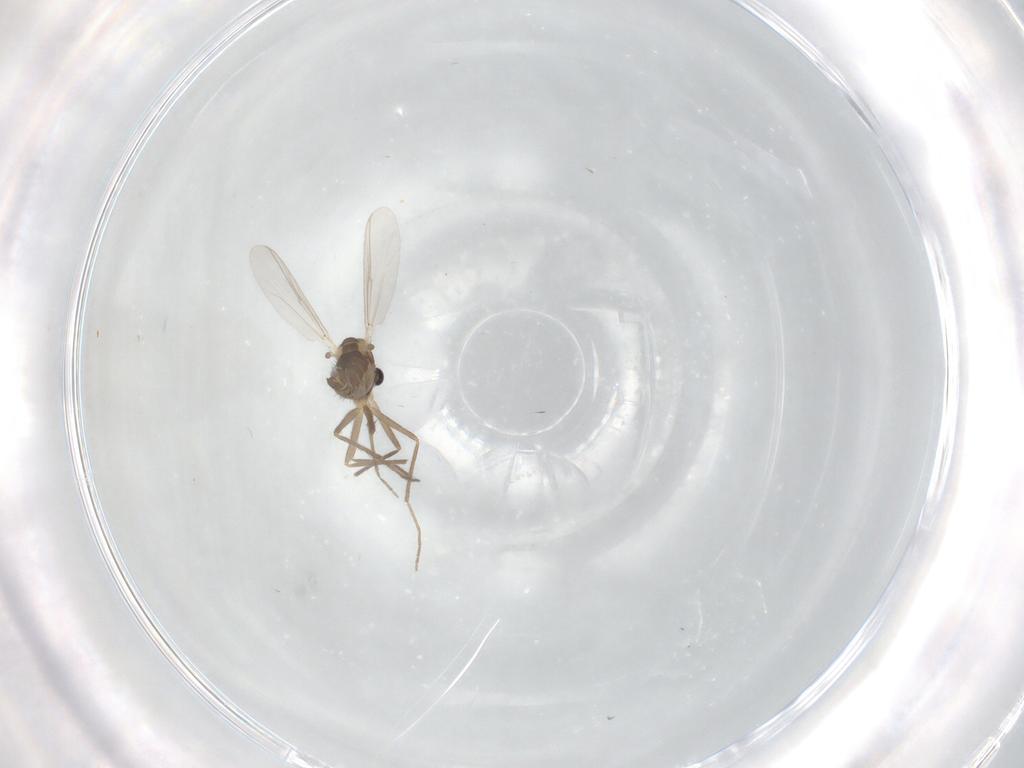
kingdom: Animalia
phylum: Arthropoda
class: Insecta
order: Diptera
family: Chironomidae
